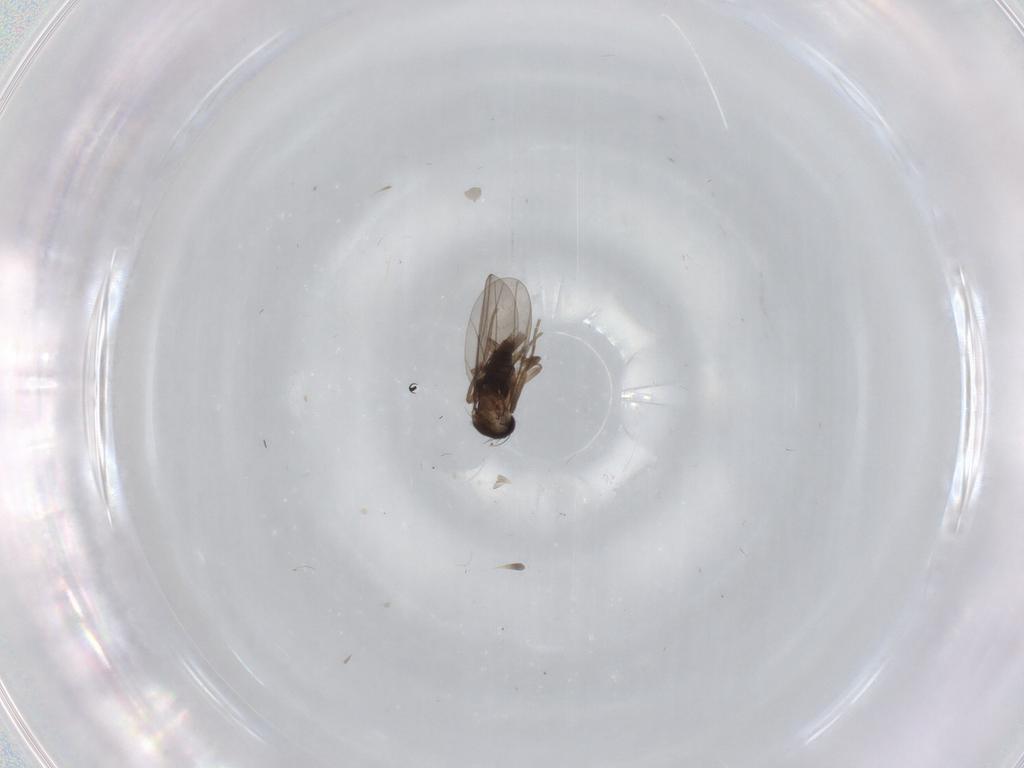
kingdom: Animalia
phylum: Arthropoda
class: Insecta
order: Diptera
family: Phoridae
